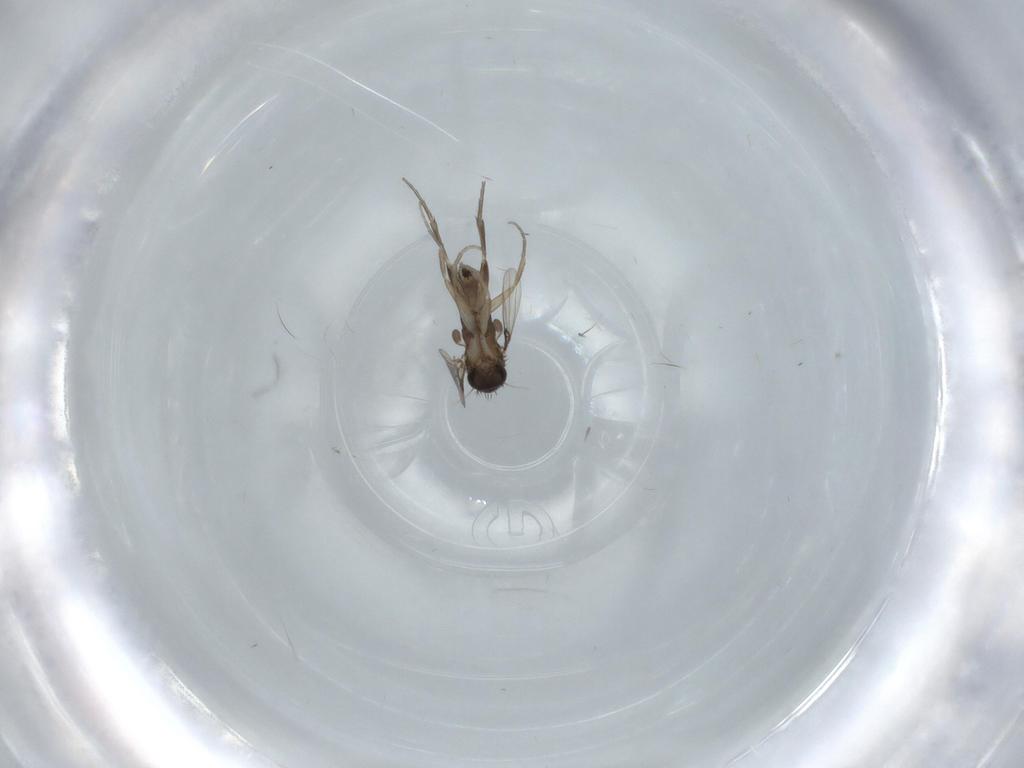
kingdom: Animalia
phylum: Arthropoda
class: Insecta
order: Diptera
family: Phoridae
